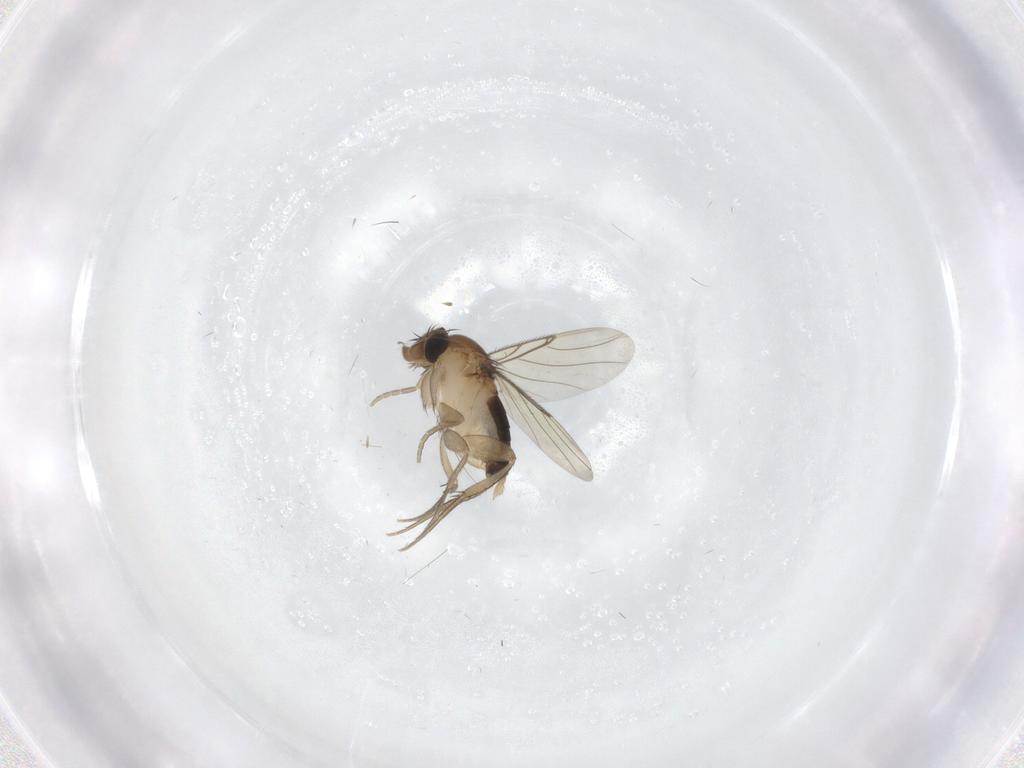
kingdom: Animalia
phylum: Arthropoda
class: Insecta
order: Diptera
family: Phoridae
